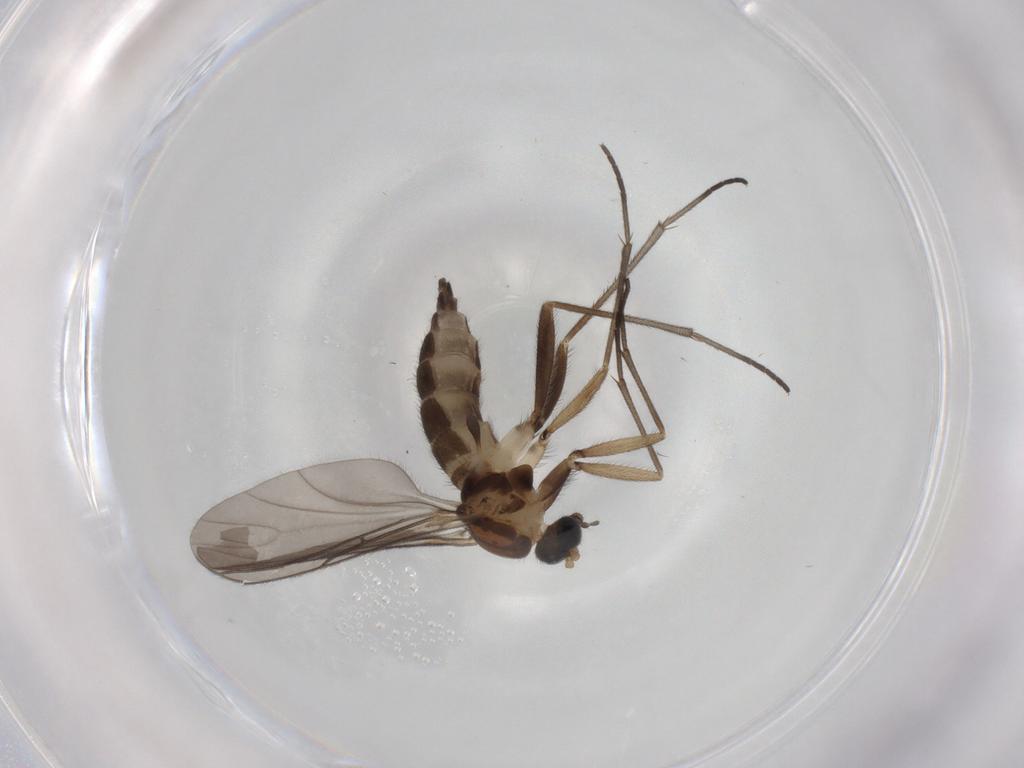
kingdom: Animalia
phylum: Arthropoda
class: Insecta
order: Diptera
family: Sciaridae
